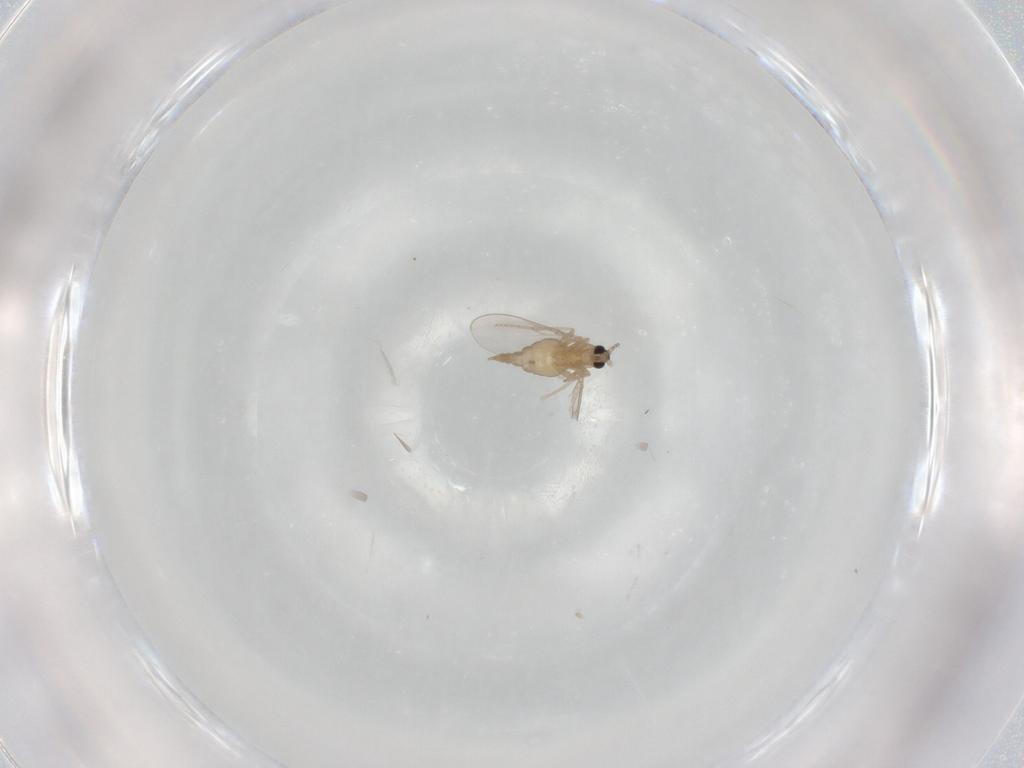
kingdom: Animalia
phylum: Arthropoda
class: Insecta
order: Diptera
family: Cecidomyiidae
